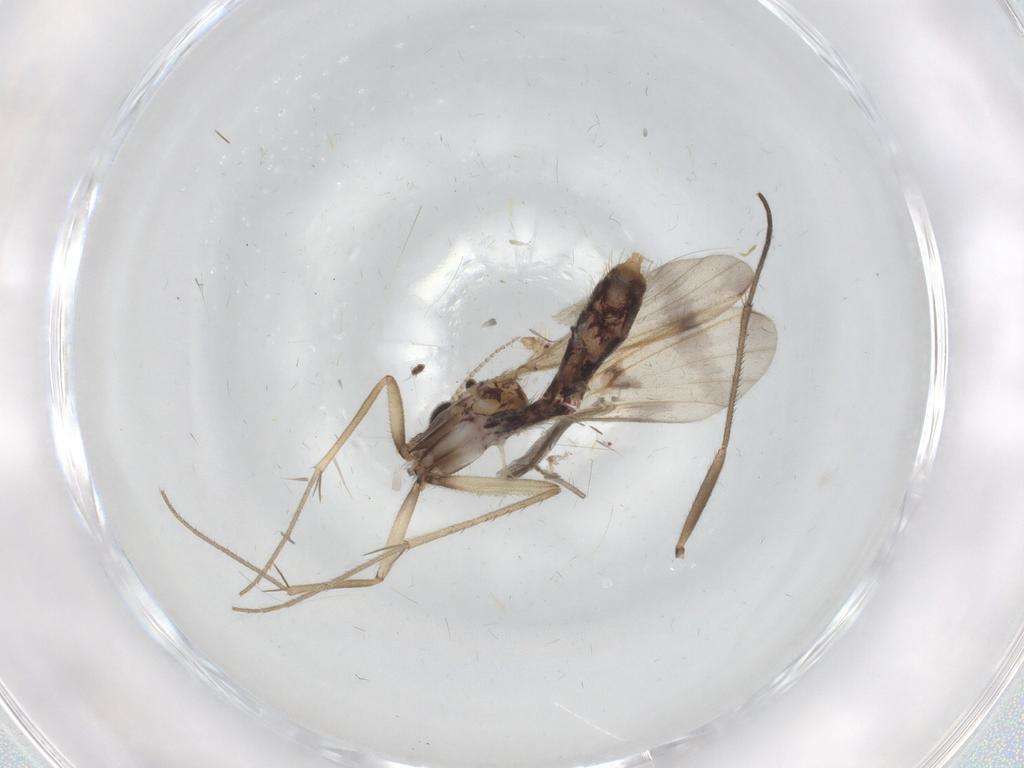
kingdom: Animalia
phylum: Arthropoda
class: Insecta
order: Diptera
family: Sciaridae
